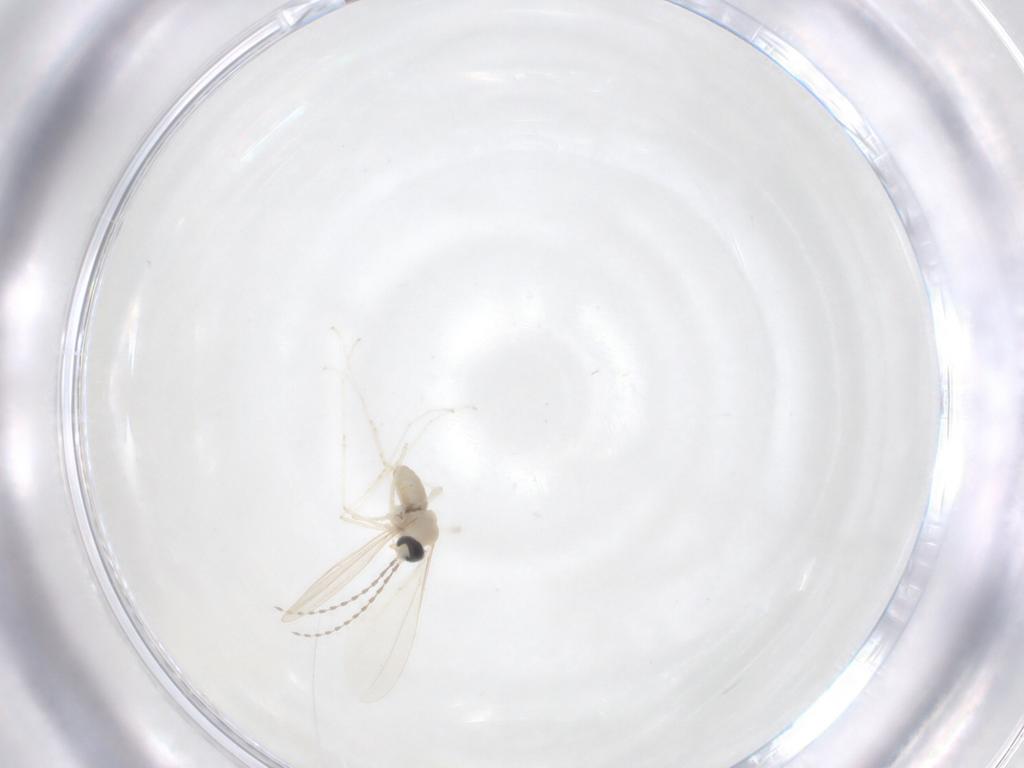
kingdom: Animalia
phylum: Arthropoda
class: Insecta
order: Diptera
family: Cecidomyiidae
